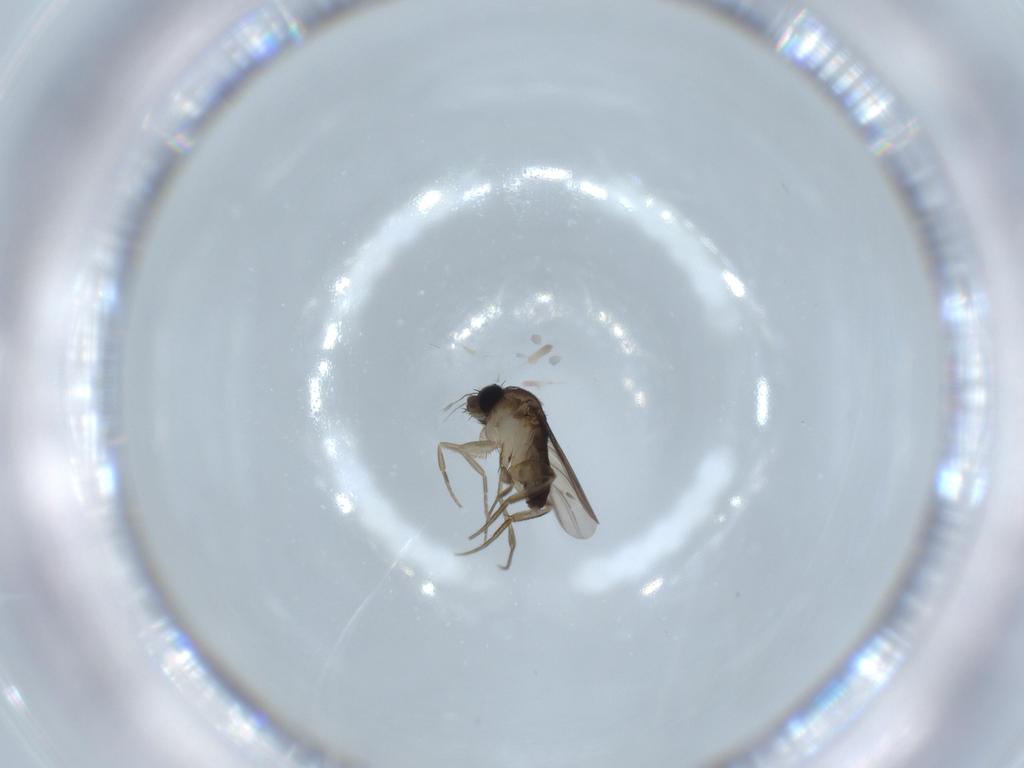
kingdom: Animalia
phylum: Arthropoda
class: Insecta
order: Diptera
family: Phoridae
